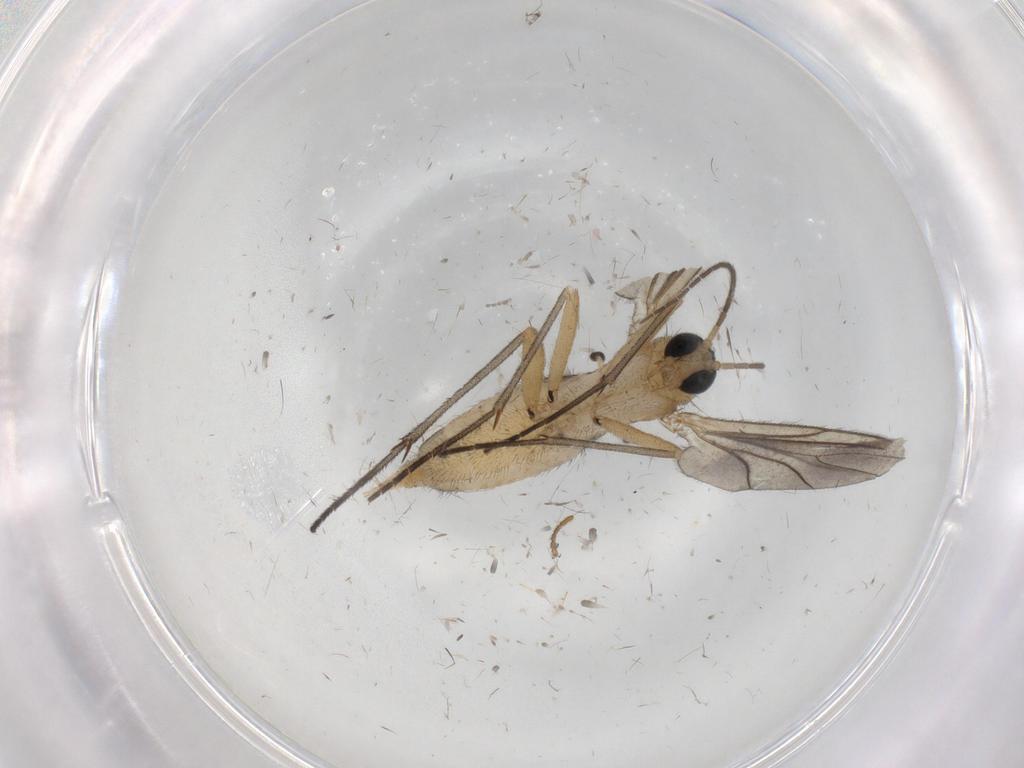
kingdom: Animalia
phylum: Arthropoda
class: Insecta
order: Diptera
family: Sciaridae
